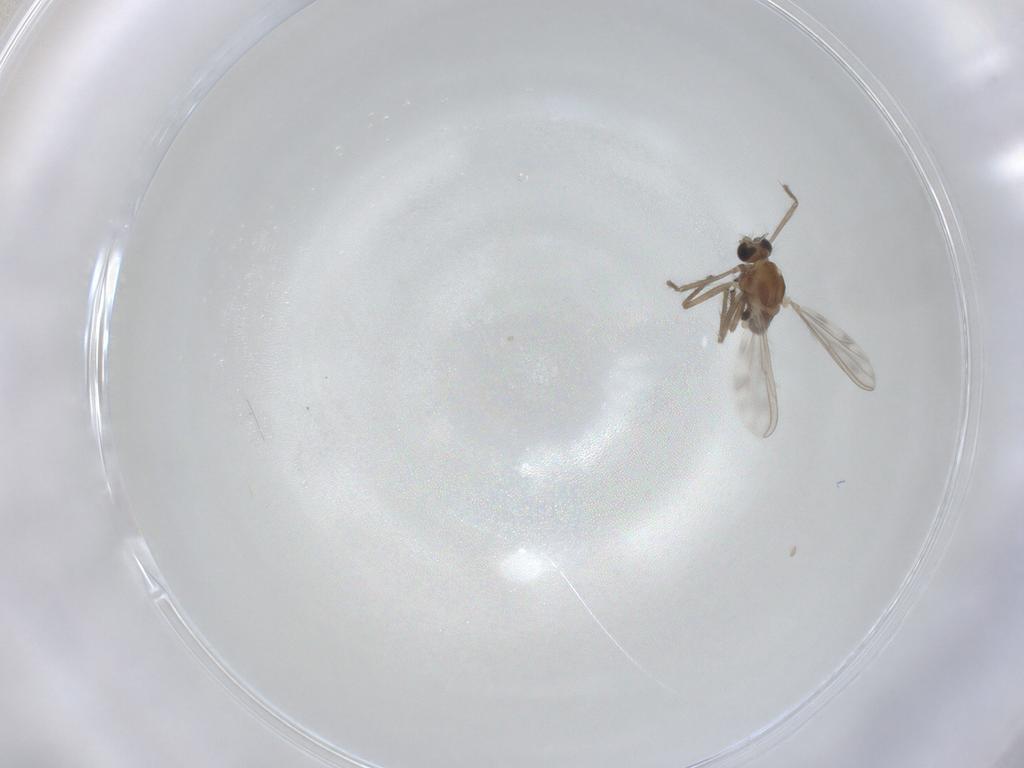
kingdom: Animalia
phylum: Arthropoda
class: Insecta
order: Diptera
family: Chironomidae
